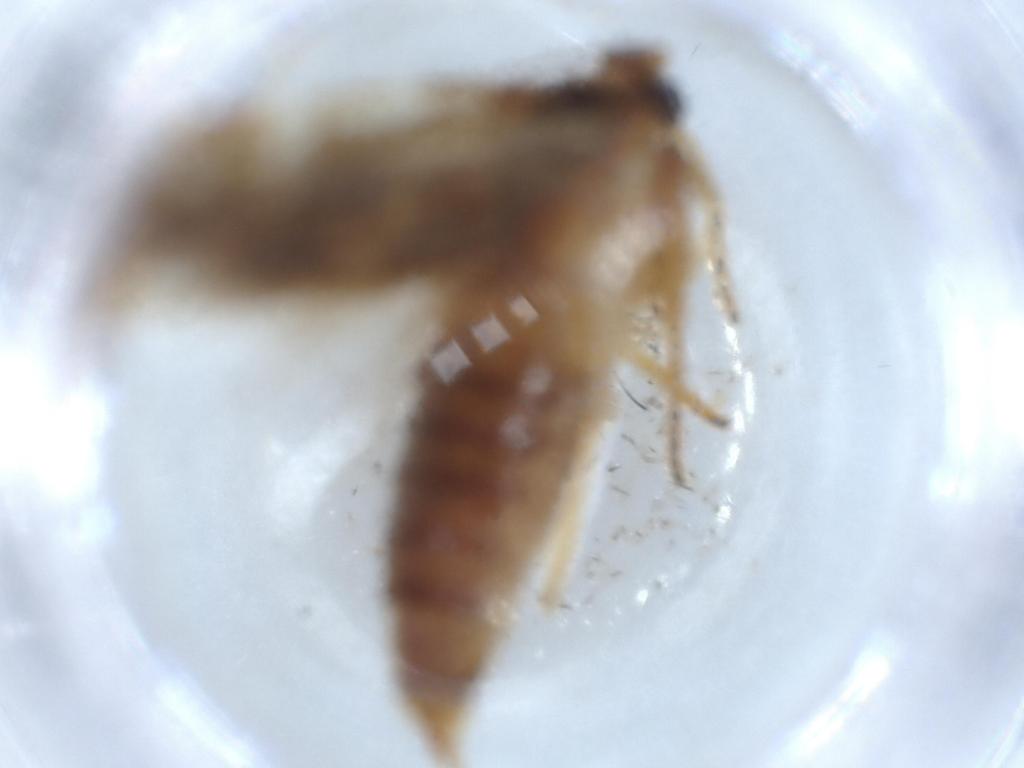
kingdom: Animalia
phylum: Arthropoda
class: Insecta
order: Lepidoptera
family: Blastobasidae
